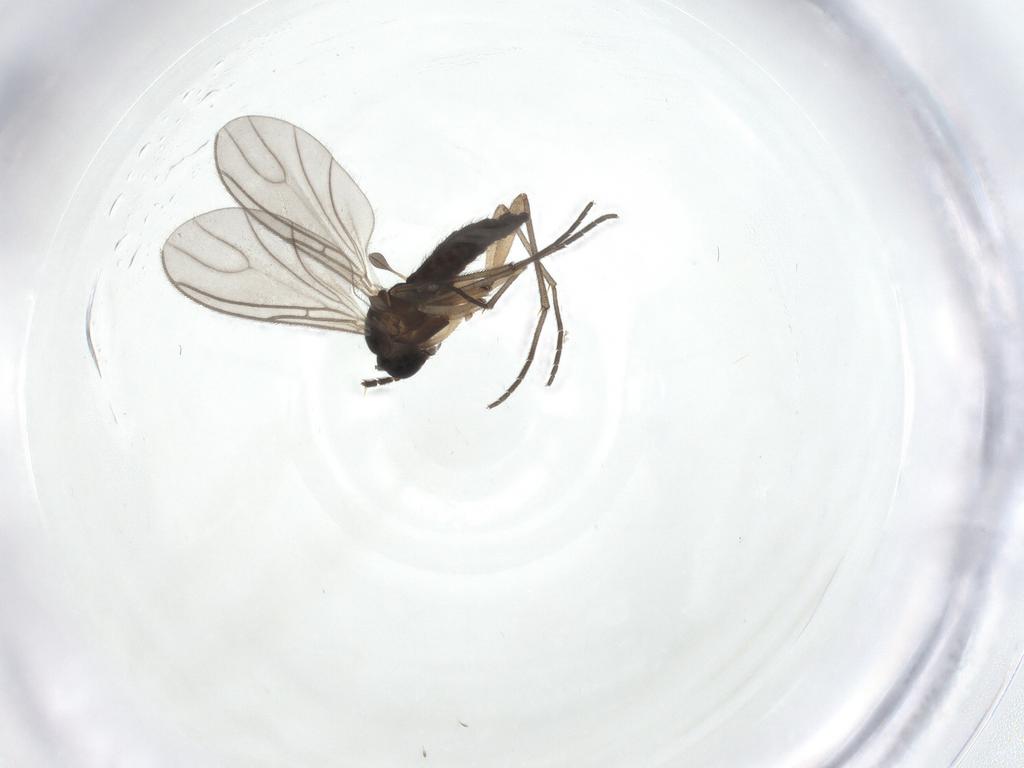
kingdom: Animalia
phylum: Arthropoda
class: Insecta
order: Diptera
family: Sciaridae
